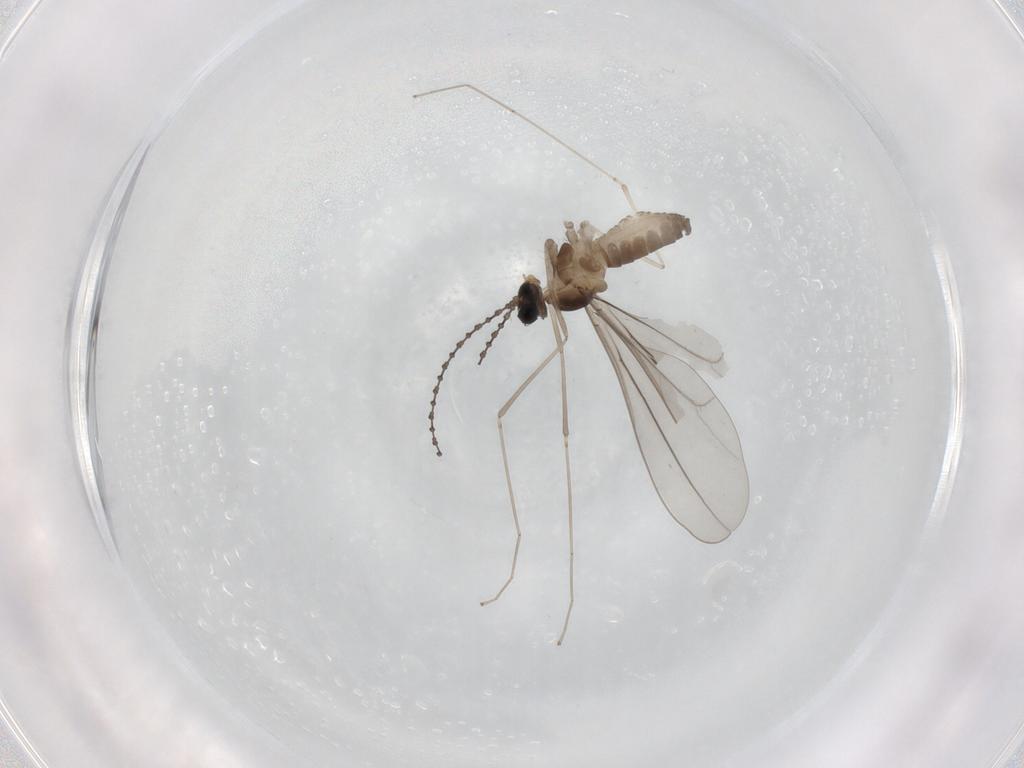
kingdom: Animalia
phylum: Arthropoda
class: Insecta
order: Diptera
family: Cecidomyiidae
